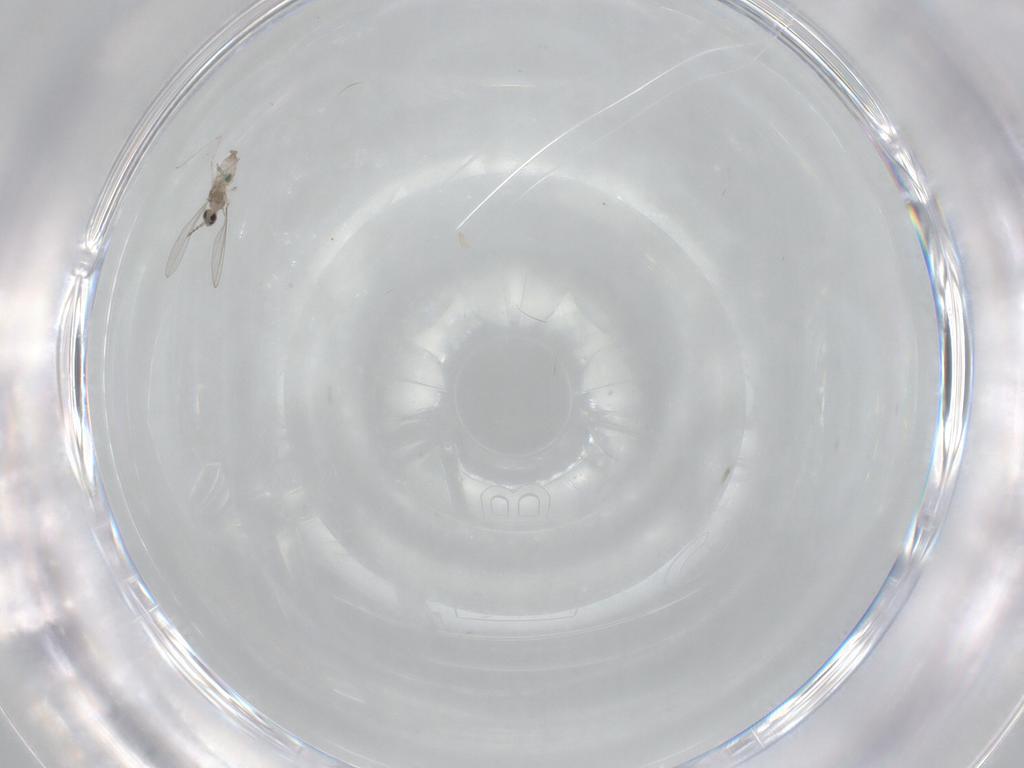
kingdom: Animalia
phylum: Arthropoda
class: Insecta
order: Diptera
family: Cecidomyiidae
